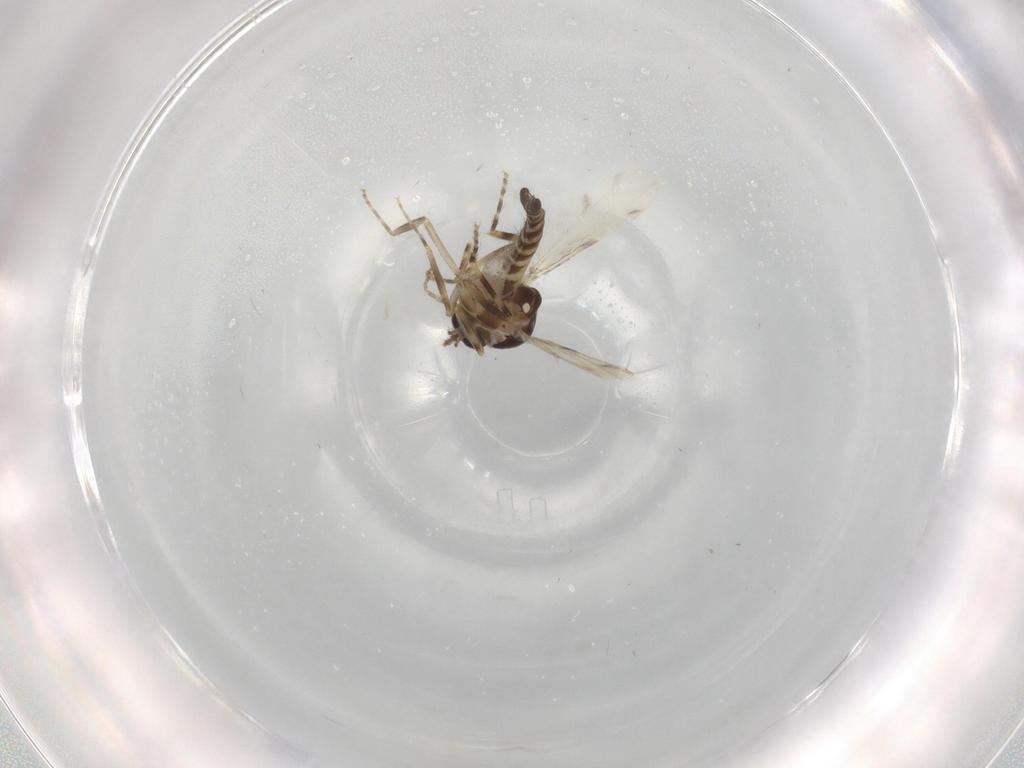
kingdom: Animalia
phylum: Arthropoda
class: Insecta
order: Diptera
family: Ceratopogonidae
